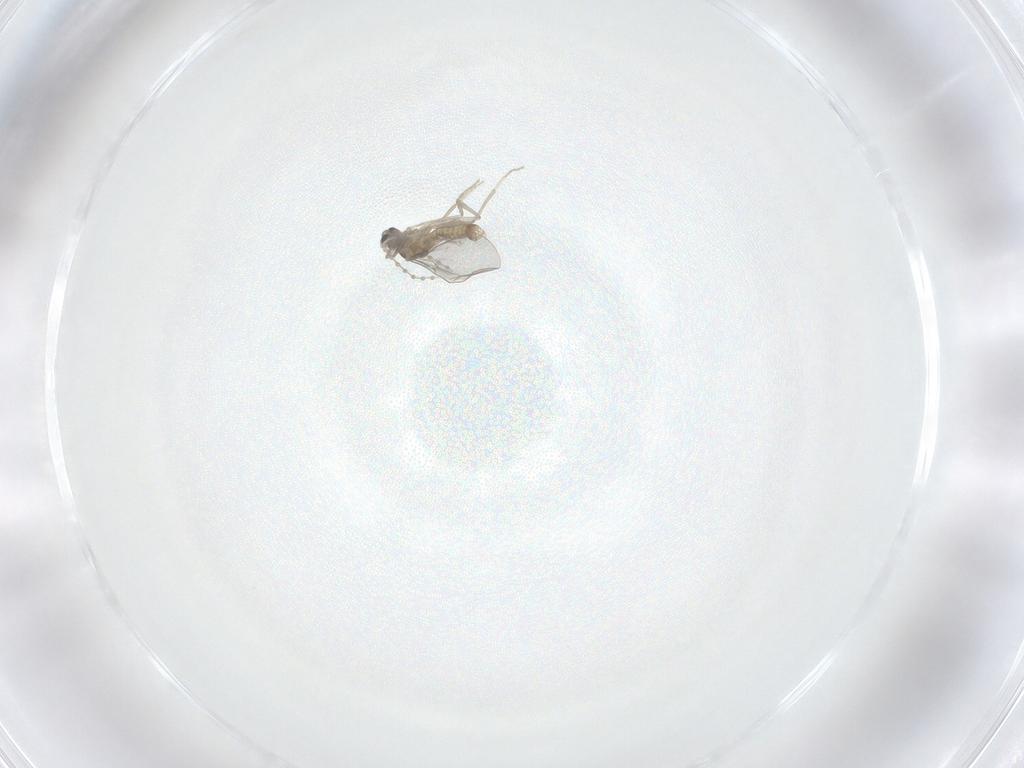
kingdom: Animalia
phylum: Arthropoda
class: Insecta
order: Diptera
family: Cecidomyiidae
